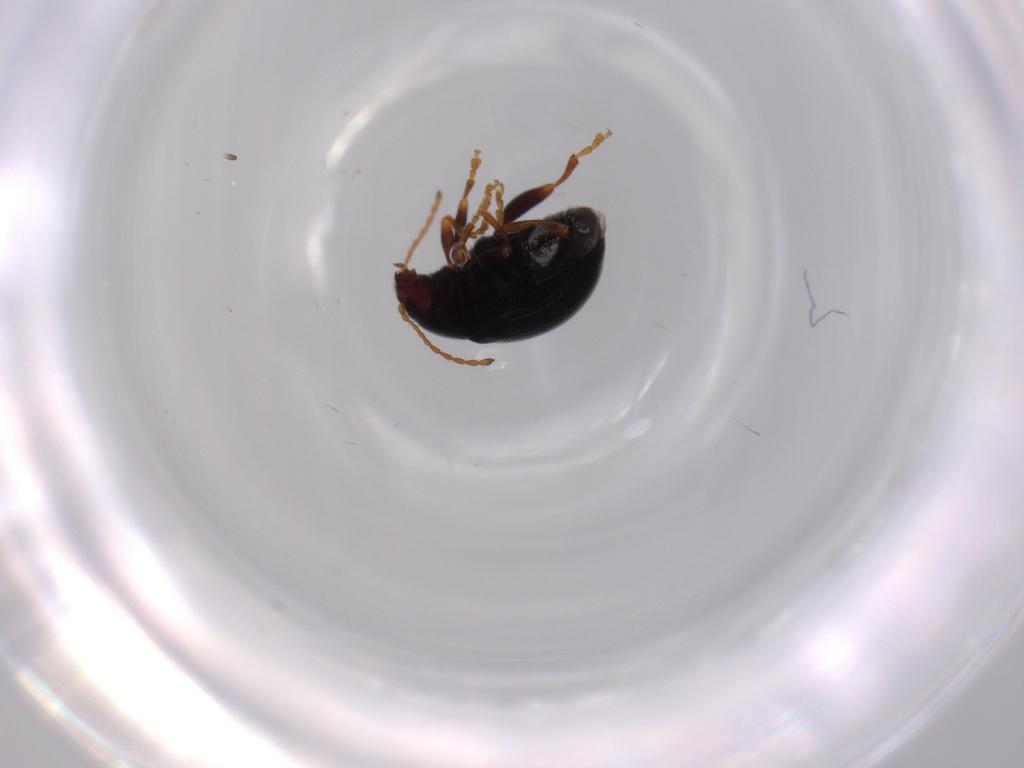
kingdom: Animalia
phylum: Arthropoda
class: Insecta
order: Coleoptera
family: Chrysomelidae
